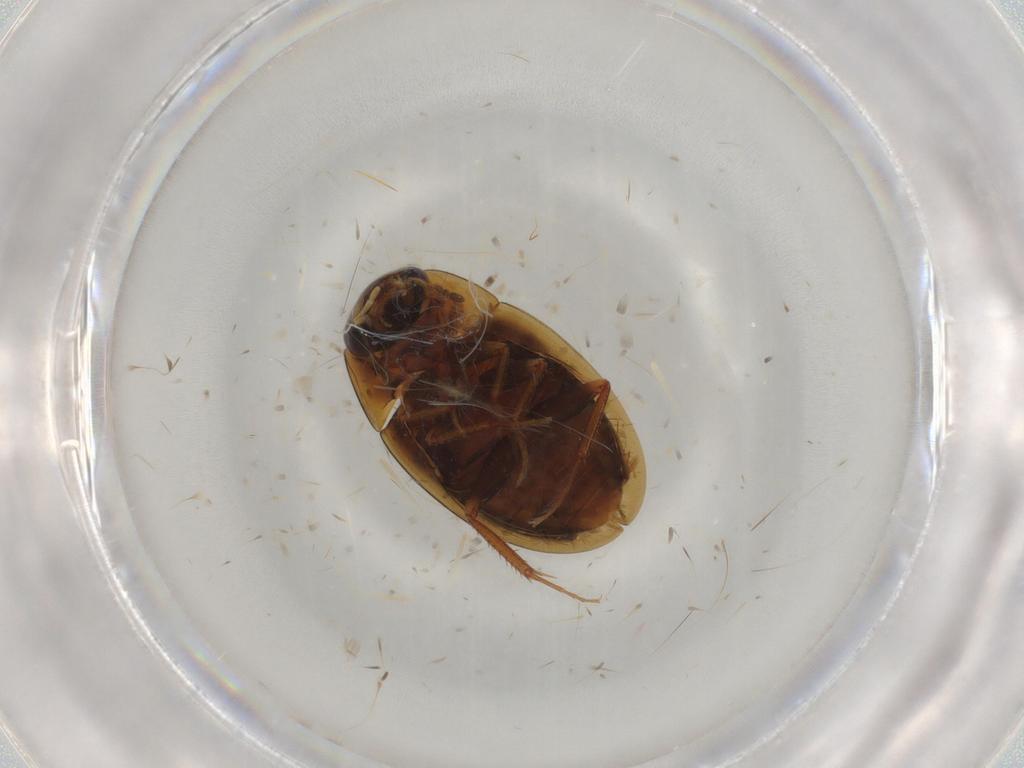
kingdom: Animalia
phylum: Arthropoda
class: Insecta
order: Coleoptera
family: Hydrophilidae
